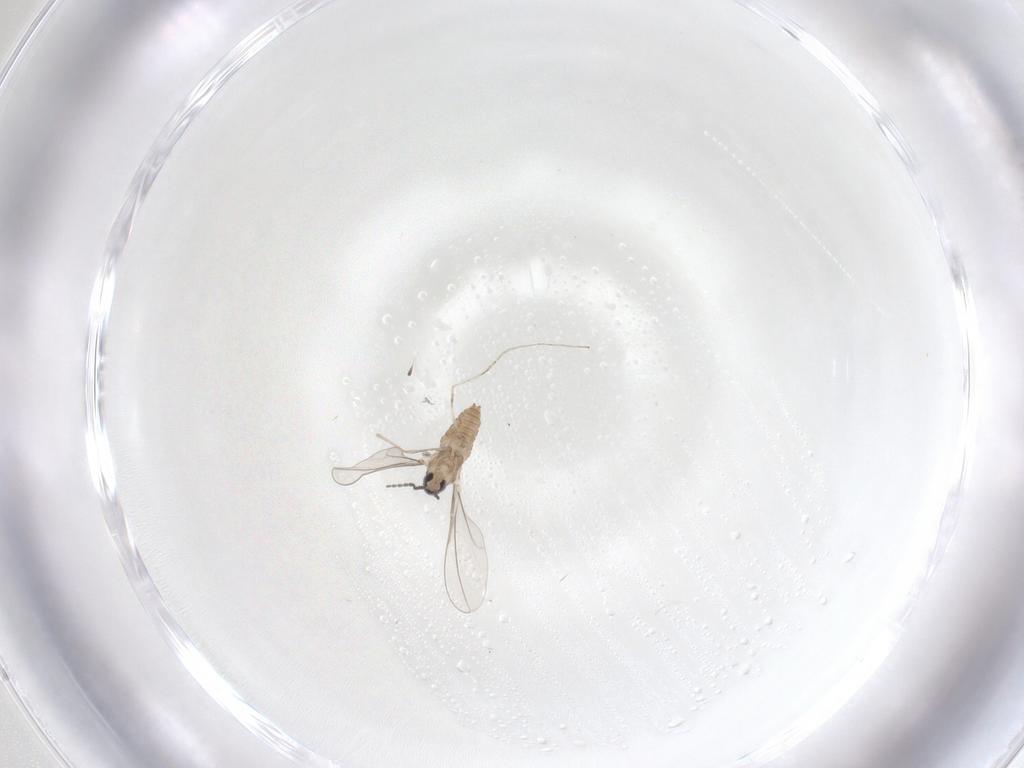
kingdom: Animalia
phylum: Arthropoda
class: Insecta
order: Diptera
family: Cecidomyiidae
